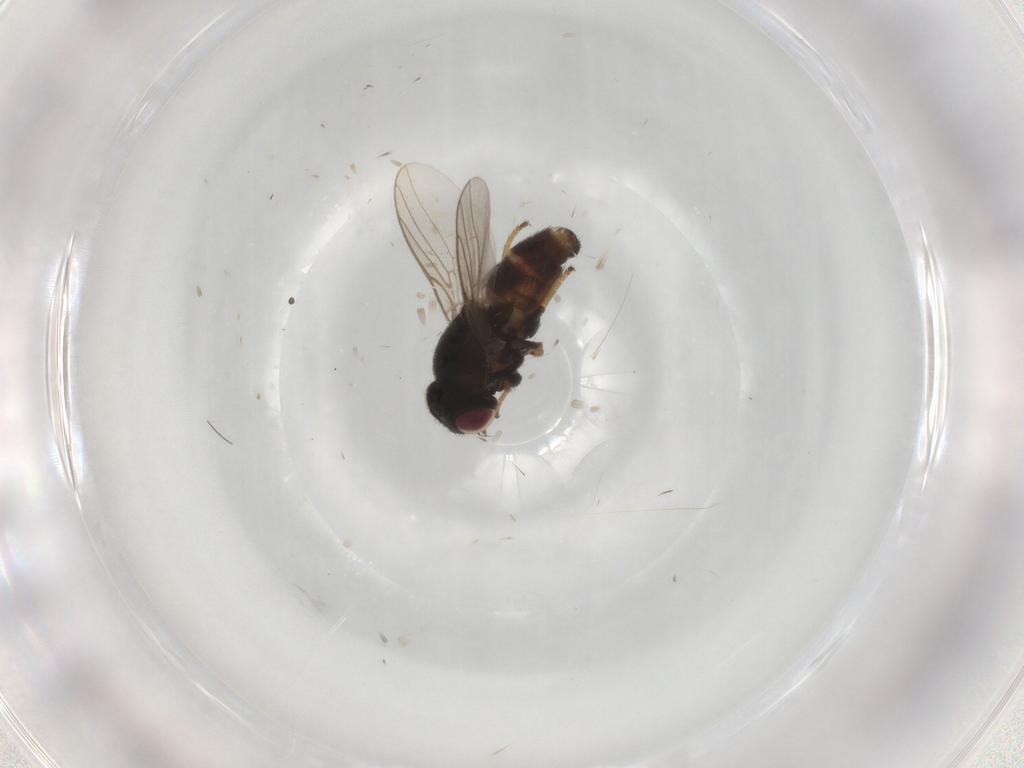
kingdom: Animalia
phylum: Arthropoda
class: Insecta
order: Diptera
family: Chloropidae
